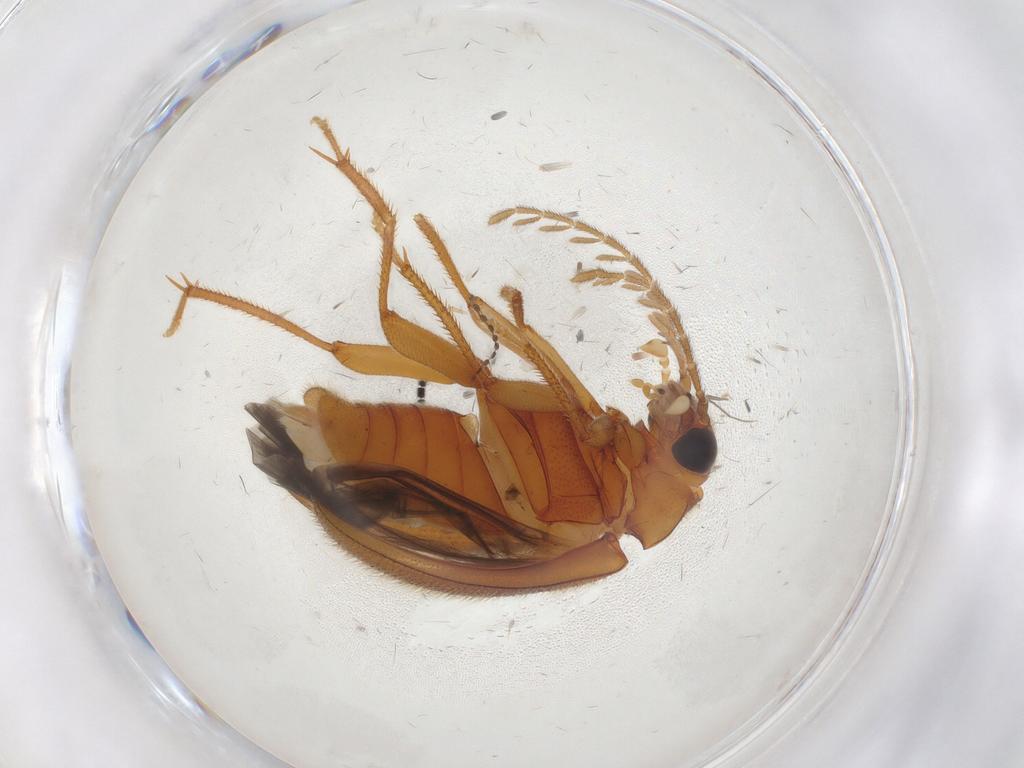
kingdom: Animalia
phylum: Arthropoda
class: Insecta
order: Coleoptera
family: Ptilodactylidae
